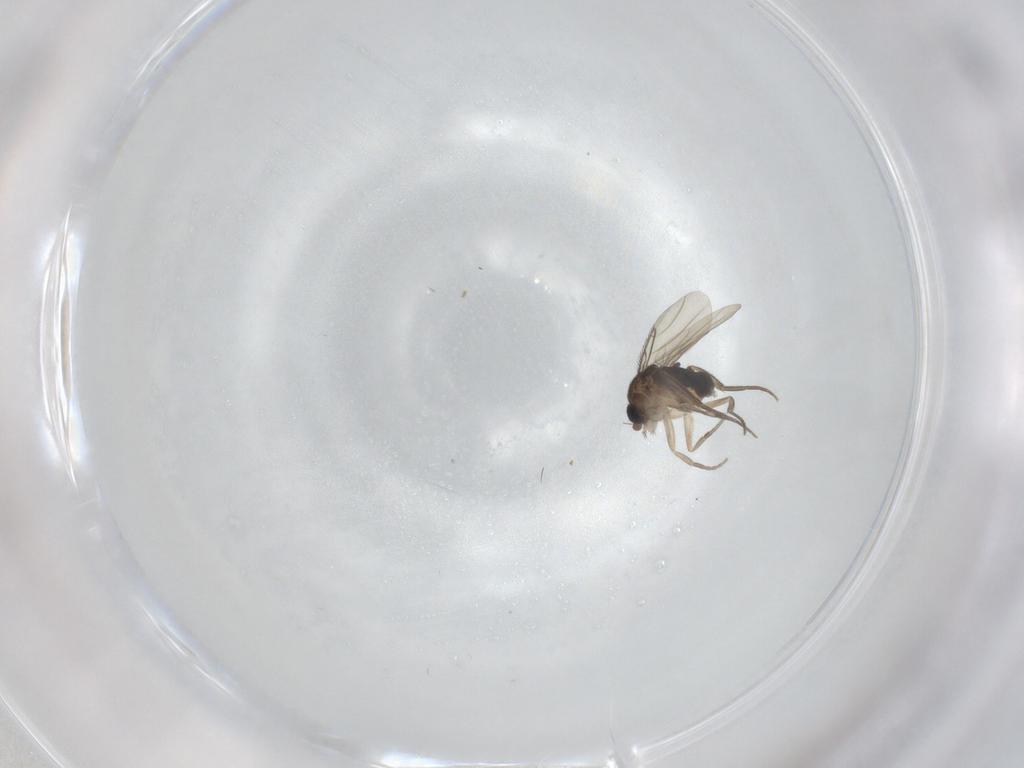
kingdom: Animalia
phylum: Arthropoda
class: Insecta
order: Diptera
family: Phoridae
